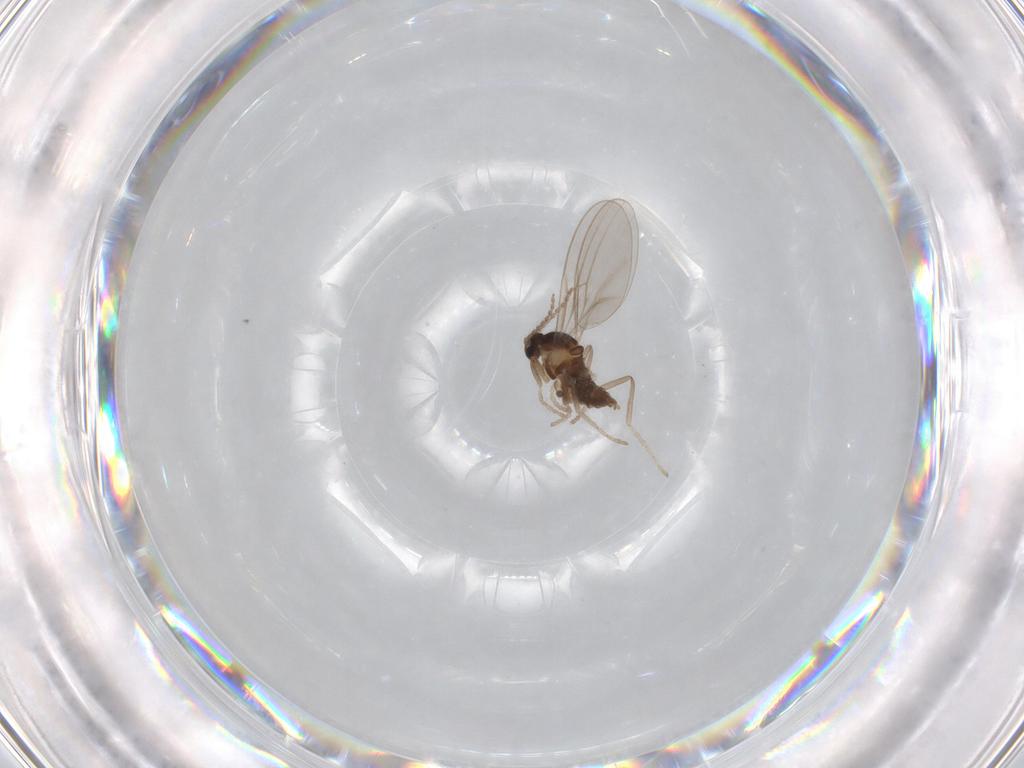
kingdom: Animalia
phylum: Arthropoda
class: Insecta
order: Diptera
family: Cecidomyiidae
